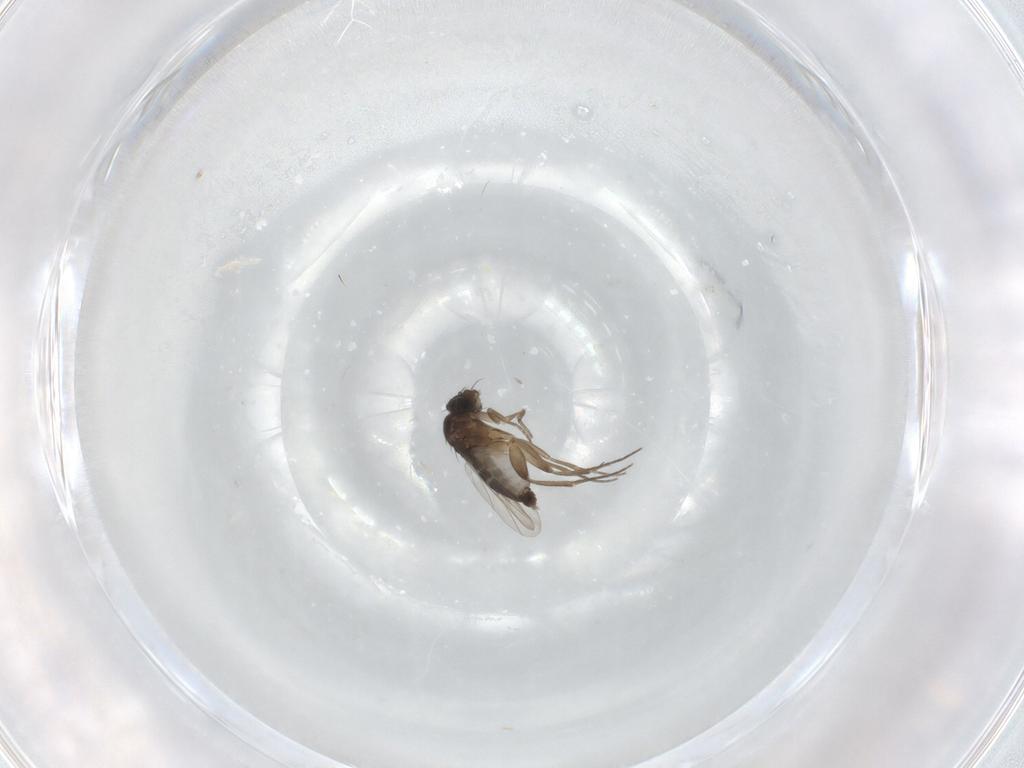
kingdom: Animalia
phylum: Arthropoda
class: Insecta
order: Diptera
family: Phoridae
